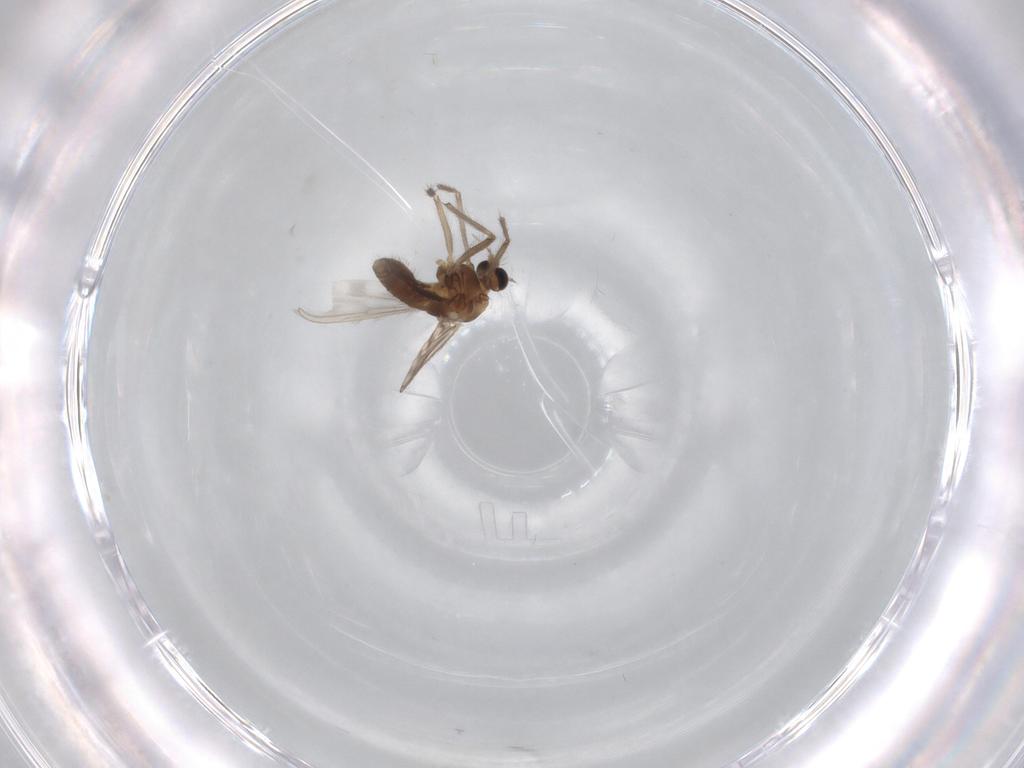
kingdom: Animalia
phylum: Arthropoda
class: Insecta
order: Diptera
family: Chironomidae
